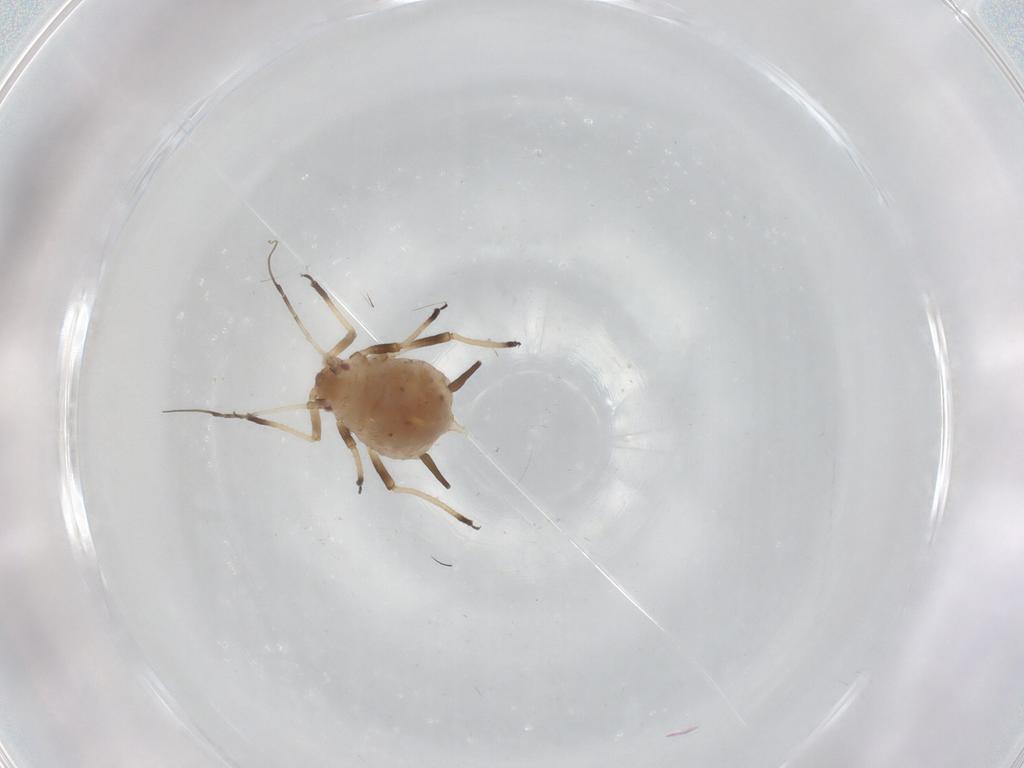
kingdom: Animalia
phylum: Arthropoda
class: Insecta
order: Hemiptera
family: Aphididae
